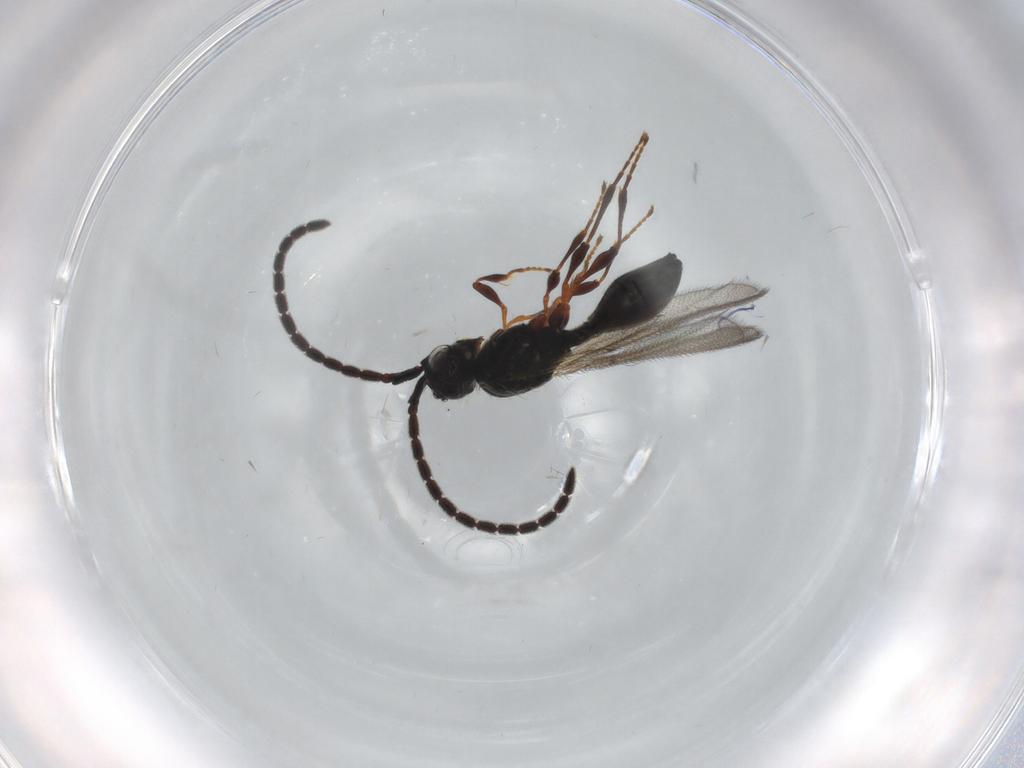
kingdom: Animalia
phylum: Arthropoda
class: Insecta
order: Hymenoptera
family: Diapriidae
